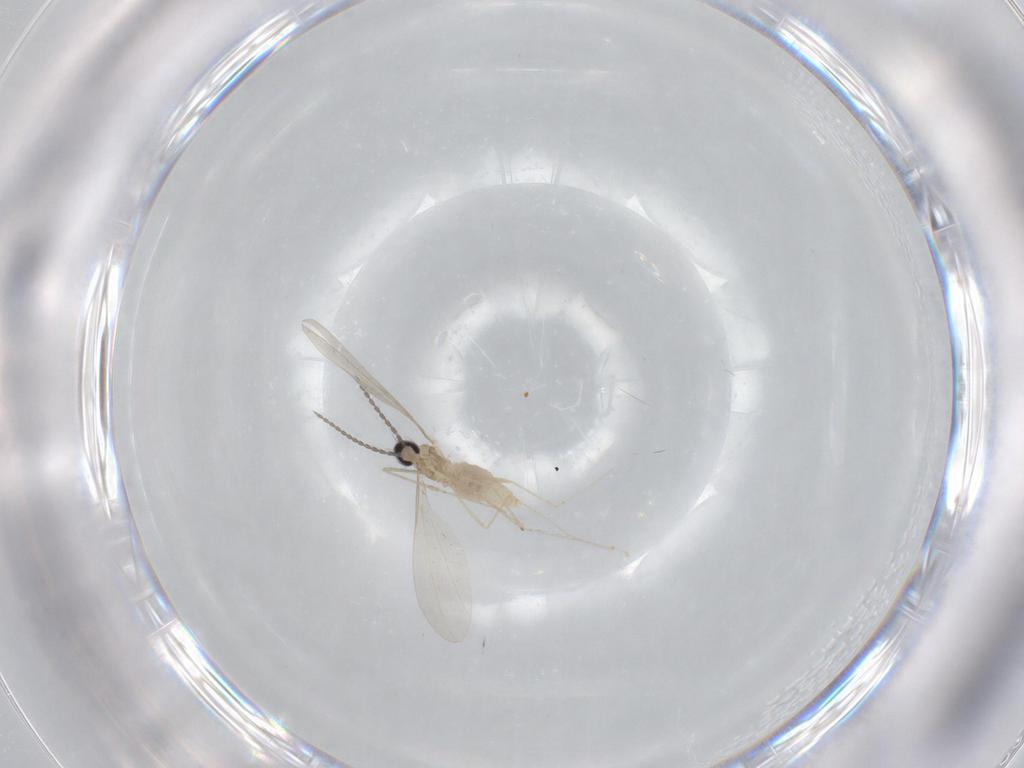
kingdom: Animalia
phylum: Arthropoda
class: Insecta
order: Diptera
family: Cecidomyiidae
